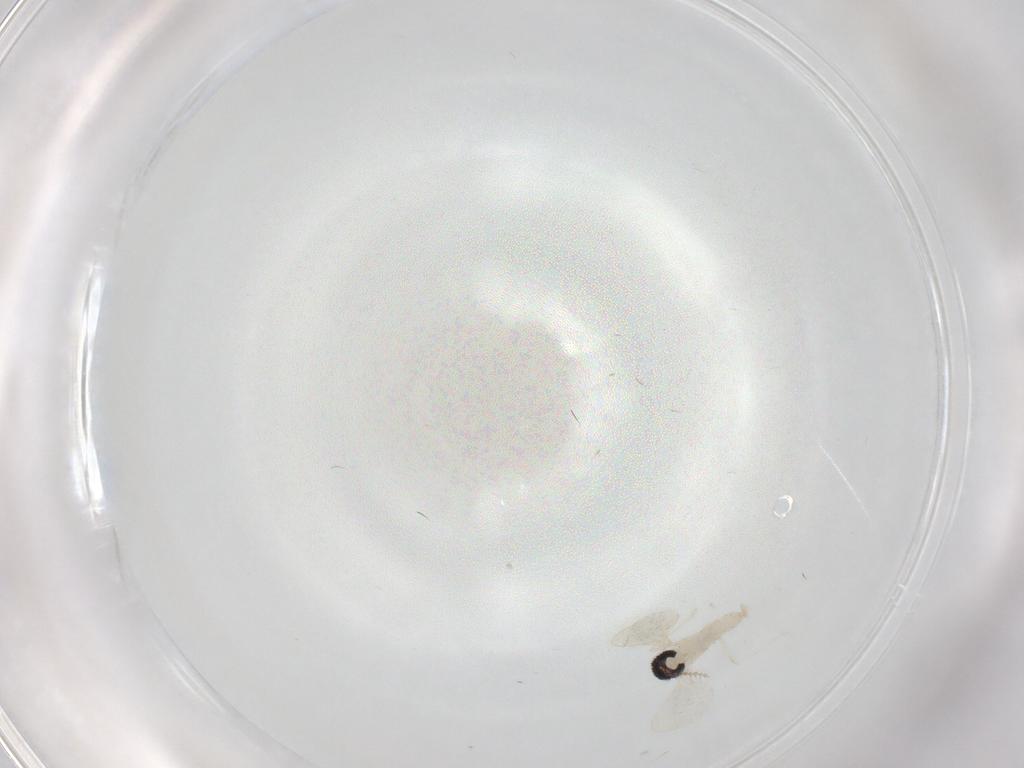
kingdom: Animalia
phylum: Arthropoda
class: Insecta
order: Diptera
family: Cecidomyiidae
